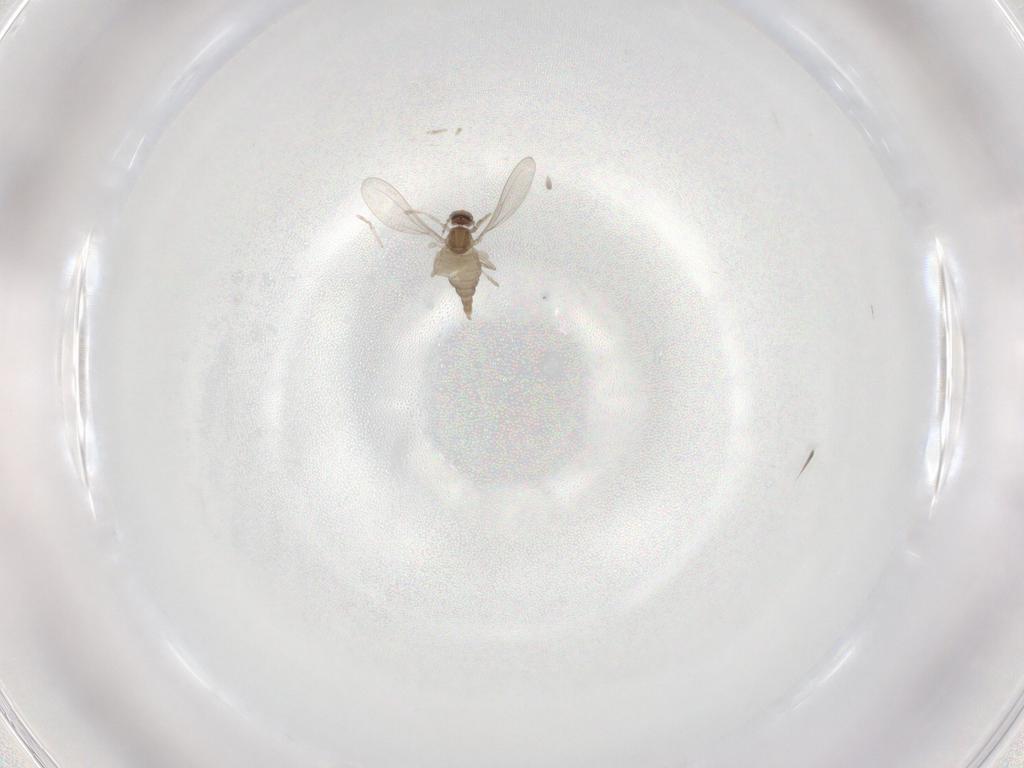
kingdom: Animalia
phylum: Arthropoda
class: Insecta
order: Diptera
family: Cecidomyiidae
